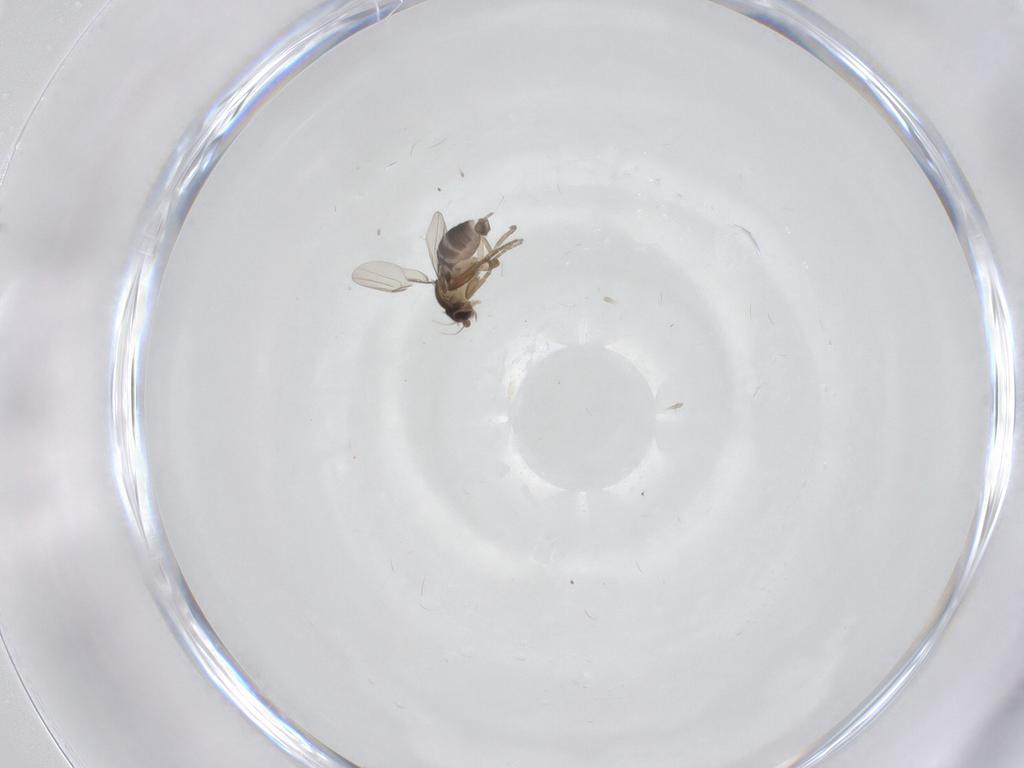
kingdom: Animalia
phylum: Arthropoda
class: Insecta
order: Diptera
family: Phoridae
